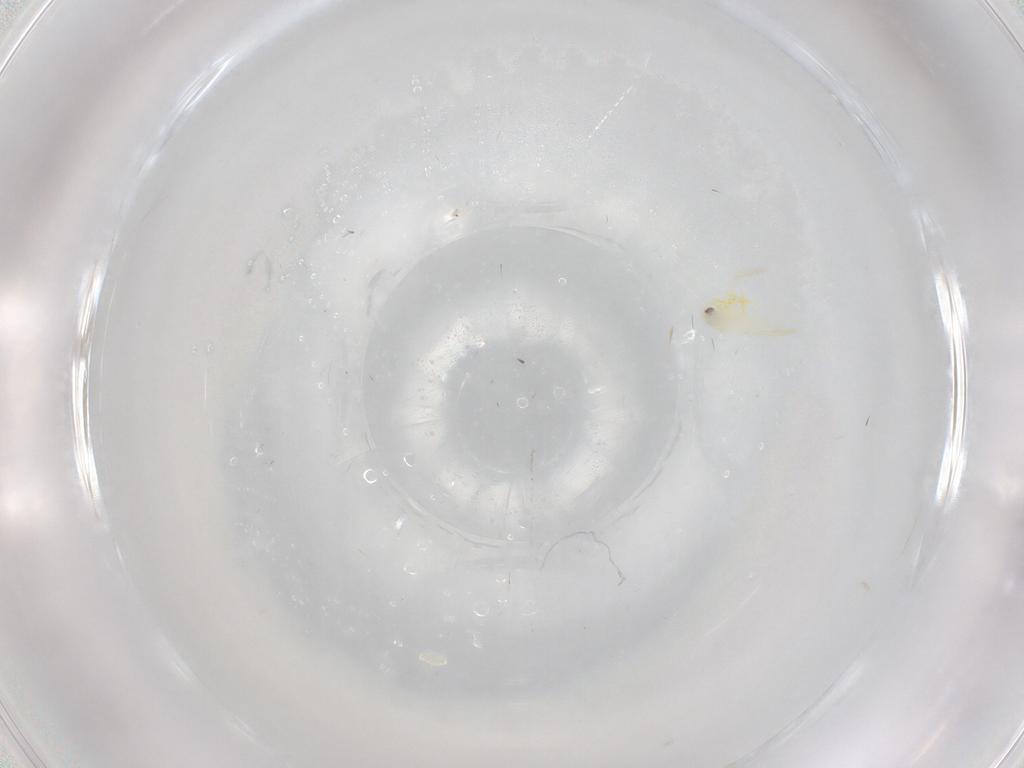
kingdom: Animalia
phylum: Arthropoda
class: Insecta
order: Hemiptera
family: Aleyrodidae
